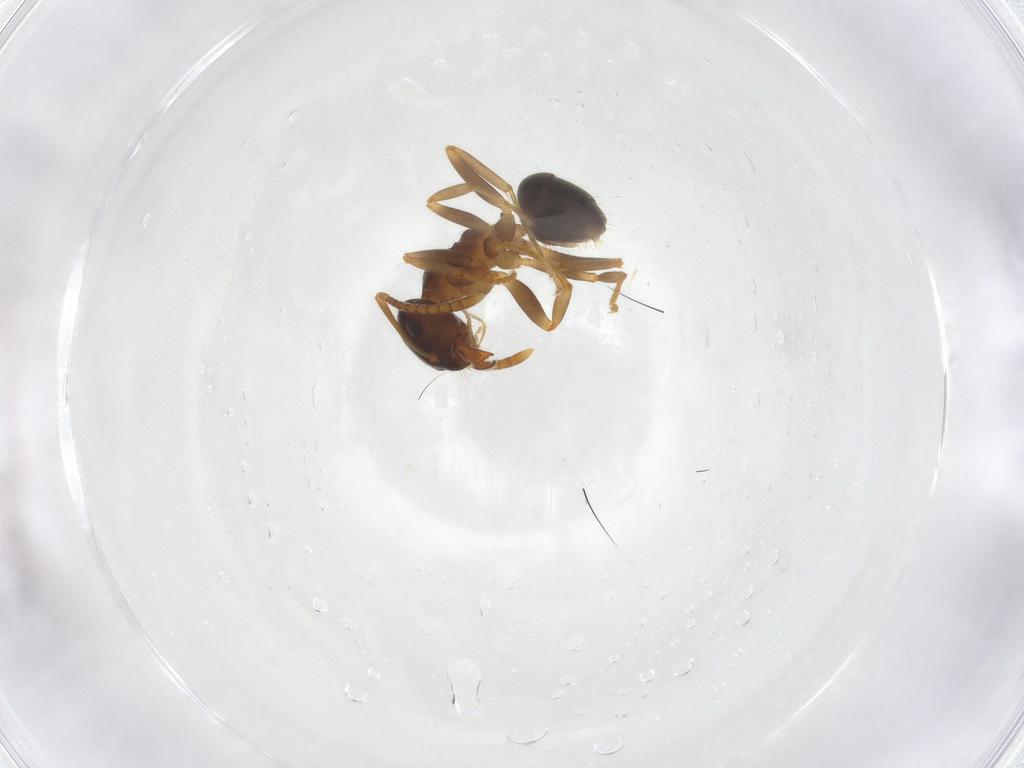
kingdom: Animalia
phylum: Arthropoda
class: Insecta
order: Hymenoptera
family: Formicidae
